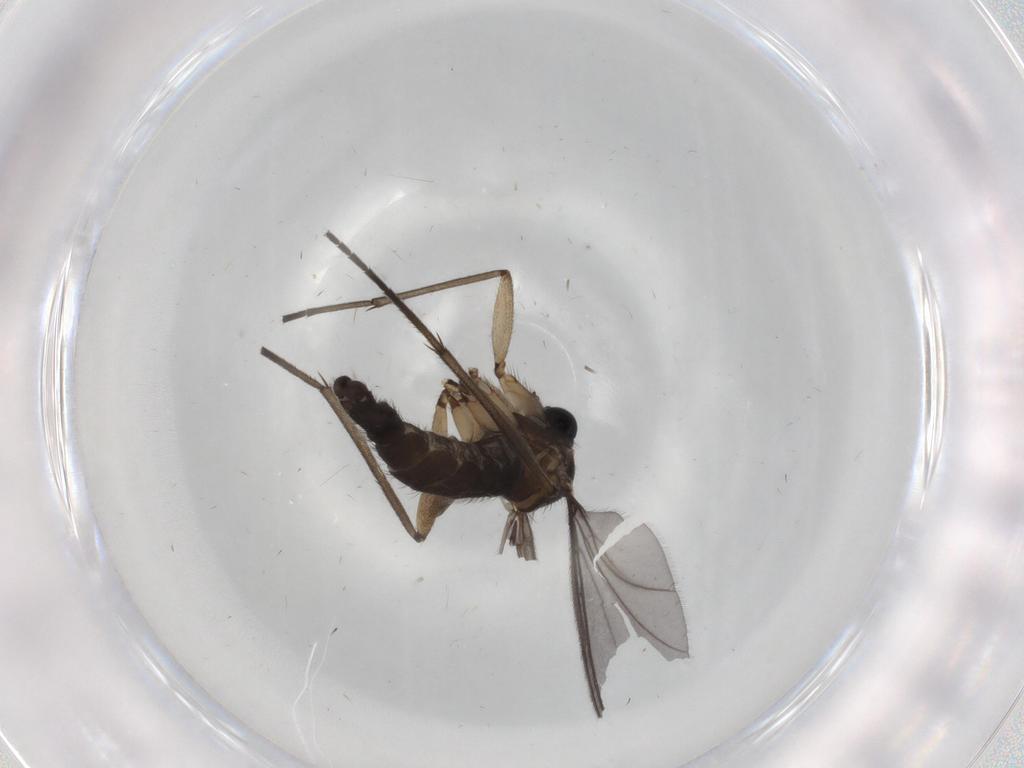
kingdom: Animalia
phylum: Arthropoda
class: Insecta
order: Diptera
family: Sciaridae
